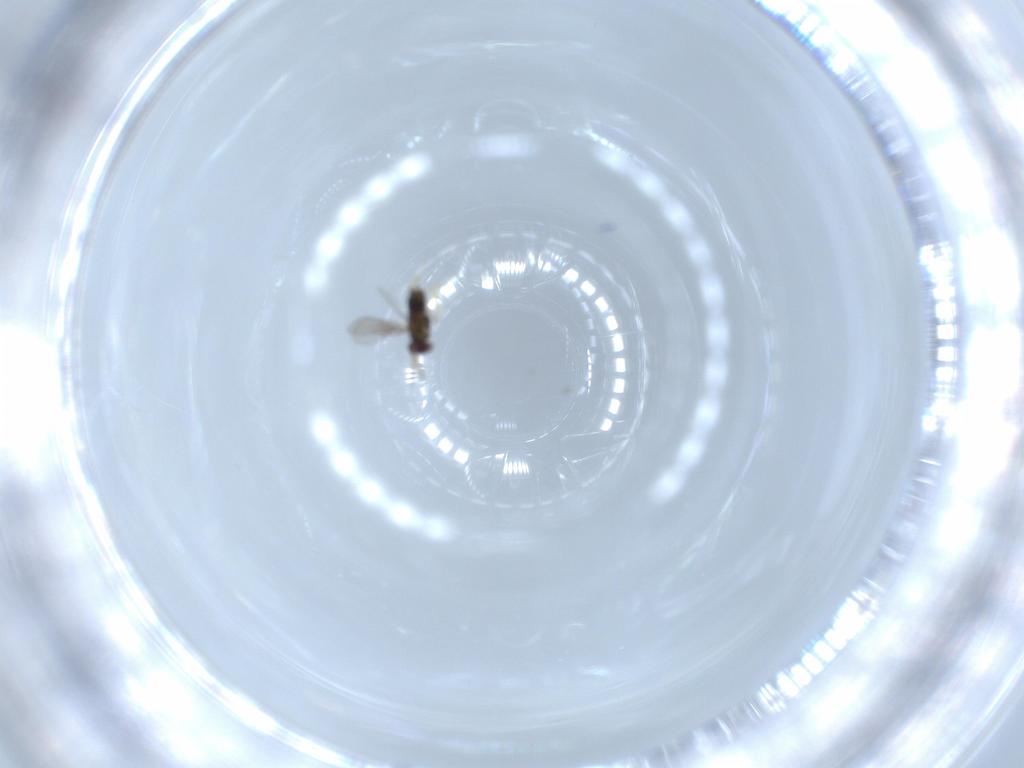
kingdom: Animalia
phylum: Arthropoda
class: Insecta
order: Hymenoptera
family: Aphelinidae
